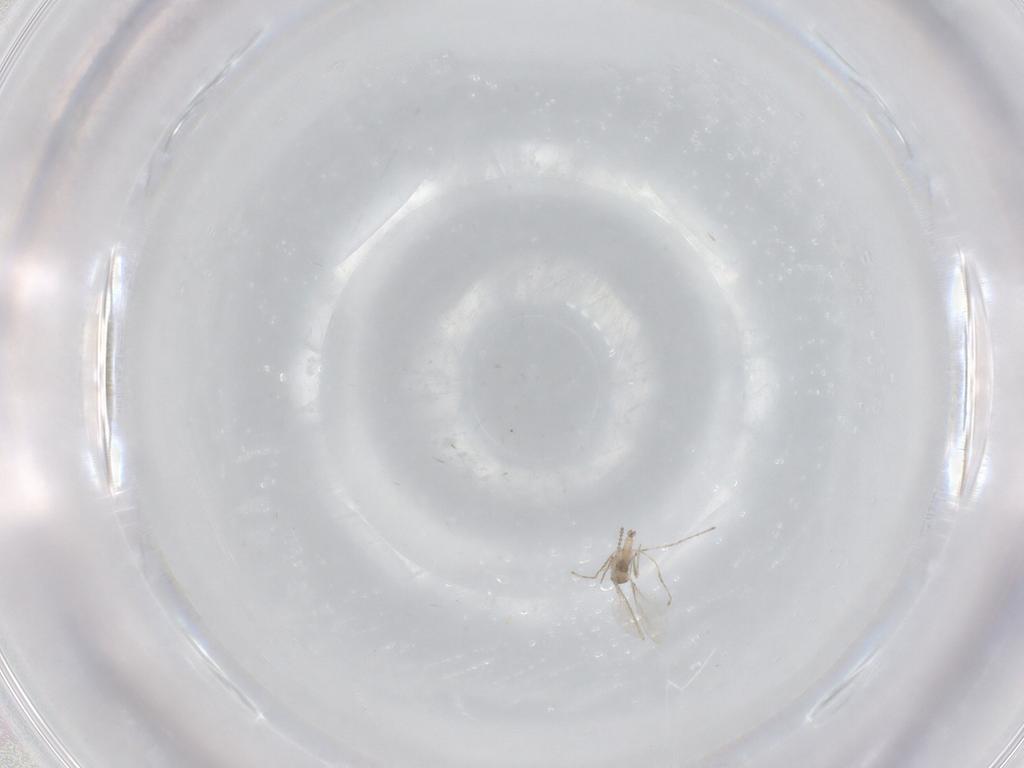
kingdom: Animalia
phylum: Arthropoda
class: Insecta
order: Diptera
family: Cecidomyiidae
